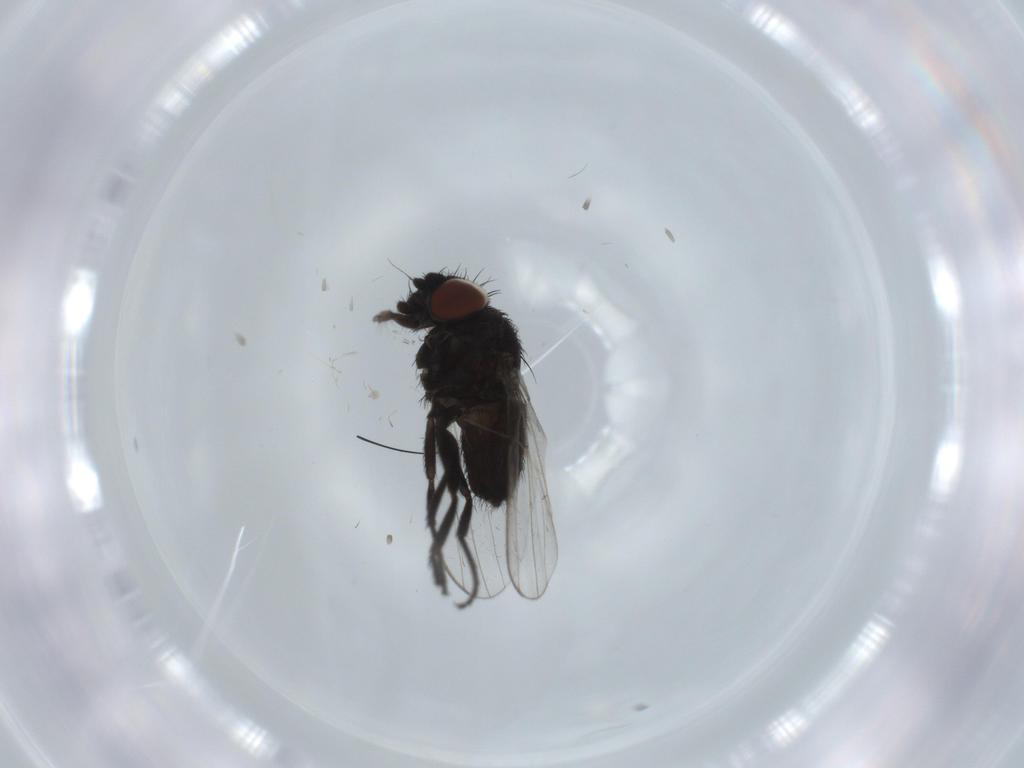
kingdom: Animalia
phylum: Arthropoda
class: Insecta
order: Diptera
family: Milichiidae
